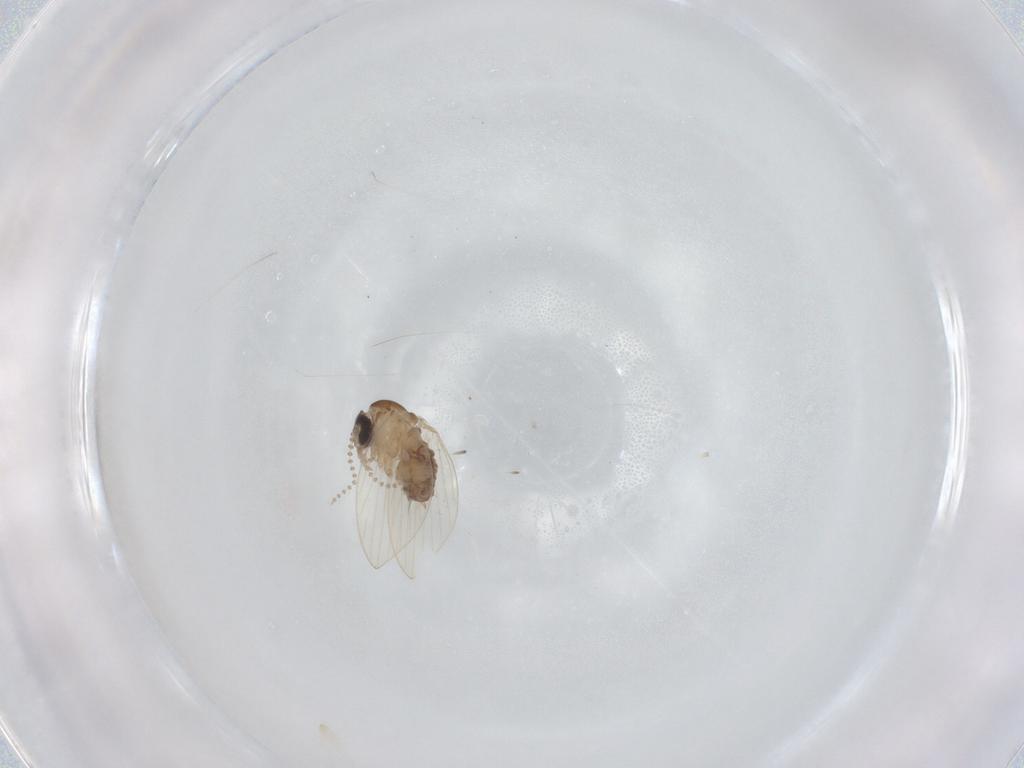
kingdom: Animalia
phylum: Arthropoda
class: Insecta
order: Diptera
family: Psychodidae
